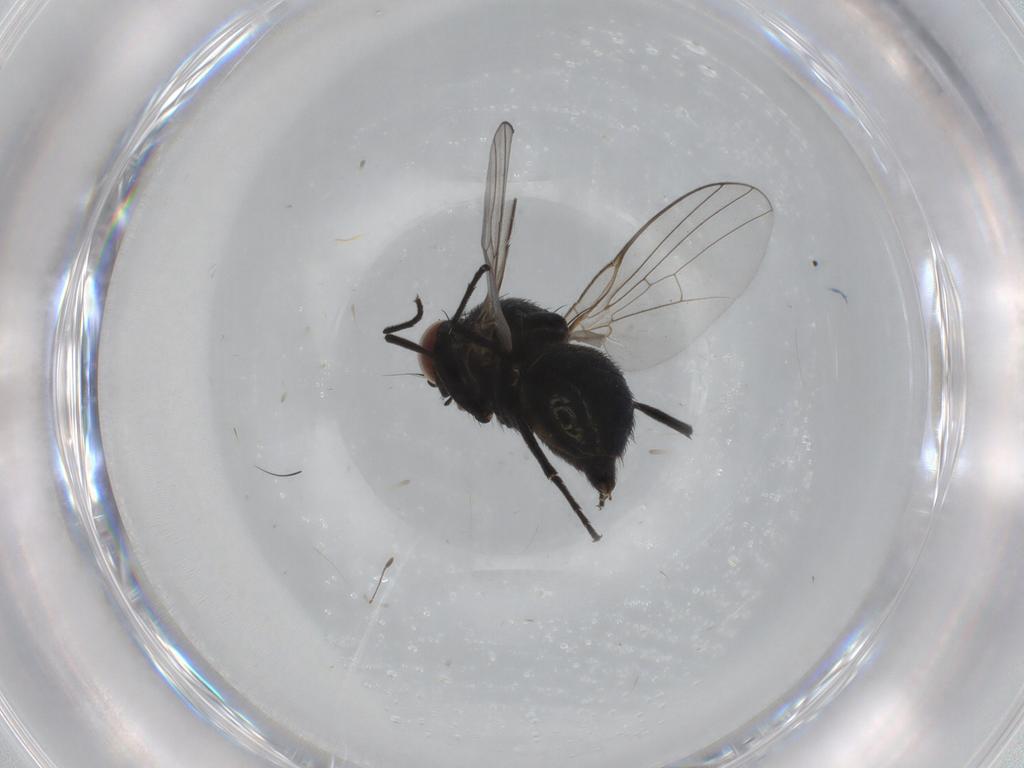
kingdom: Animalia
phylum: Arthropoda
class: Insecta
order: Diptera
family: Agromyzidae
